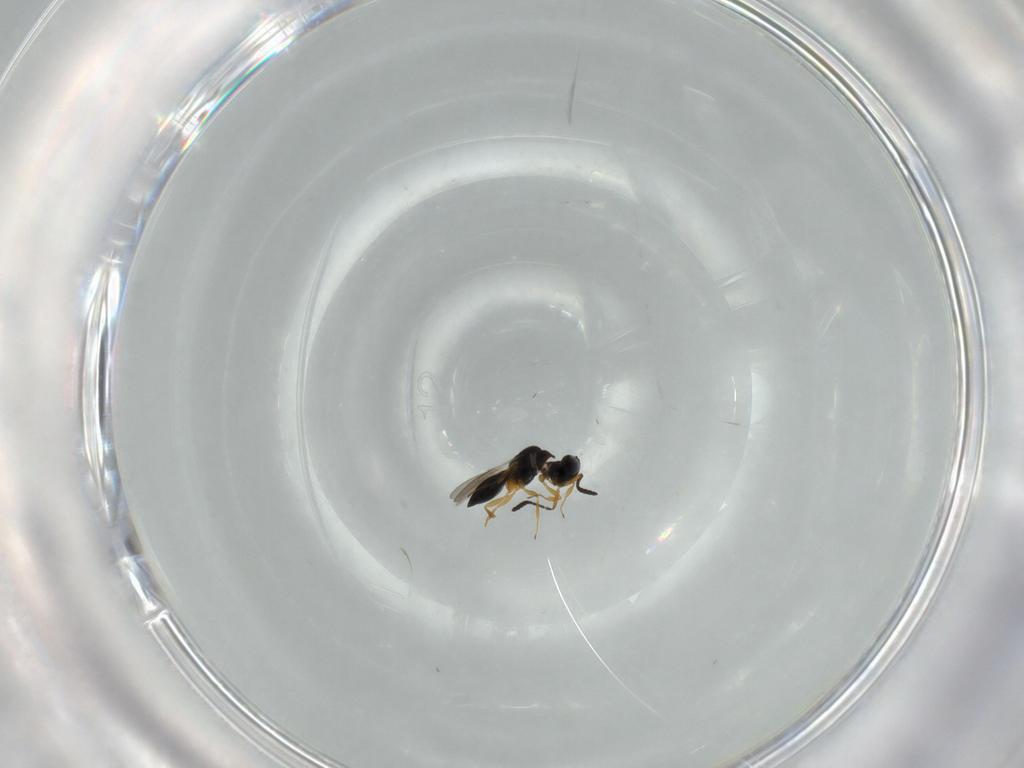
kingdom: Animalia
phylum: Arthropoda
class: Insecta
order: Hymenoptera
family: Scelionidae
